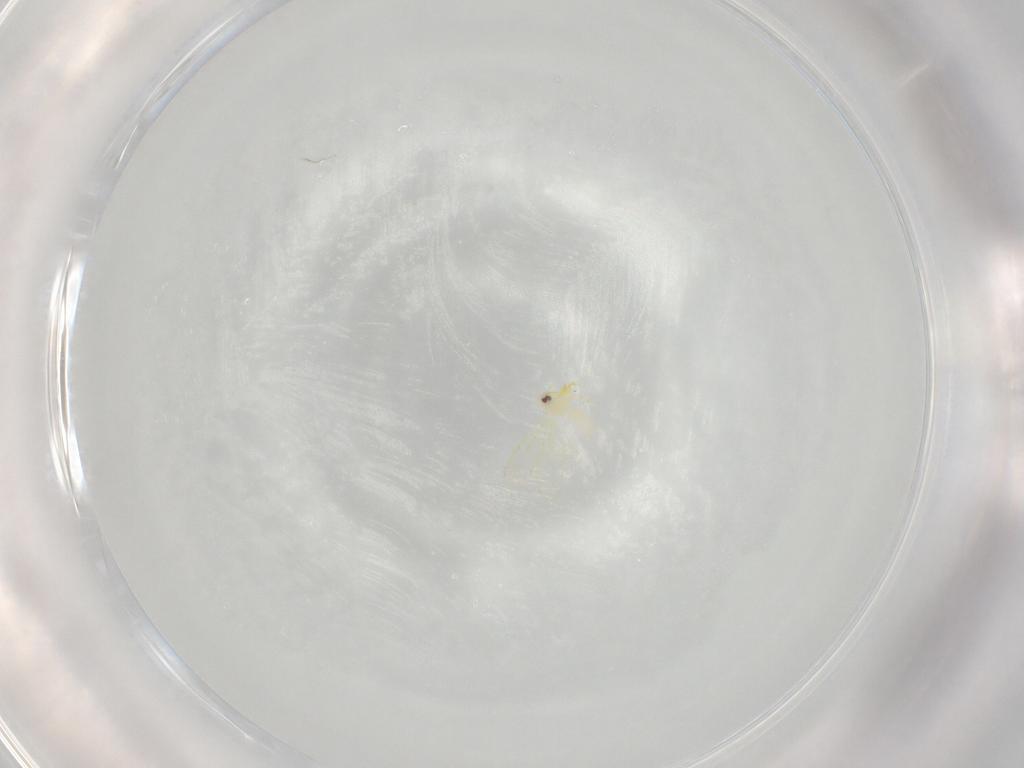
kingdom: Animalia
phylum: Arthropoda
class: Insecta
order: Hemiptera
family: Aleyrodidae
